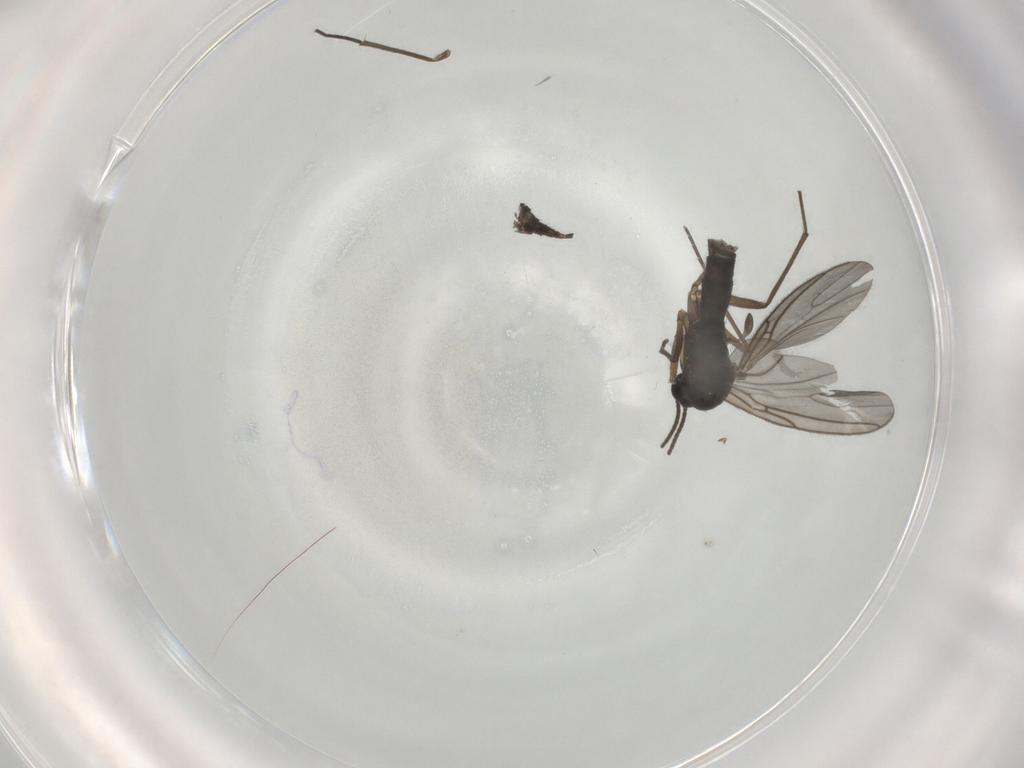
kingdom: Animalia
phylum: Arthropoda
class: Insecta
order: Diptera
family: Sciaridae
